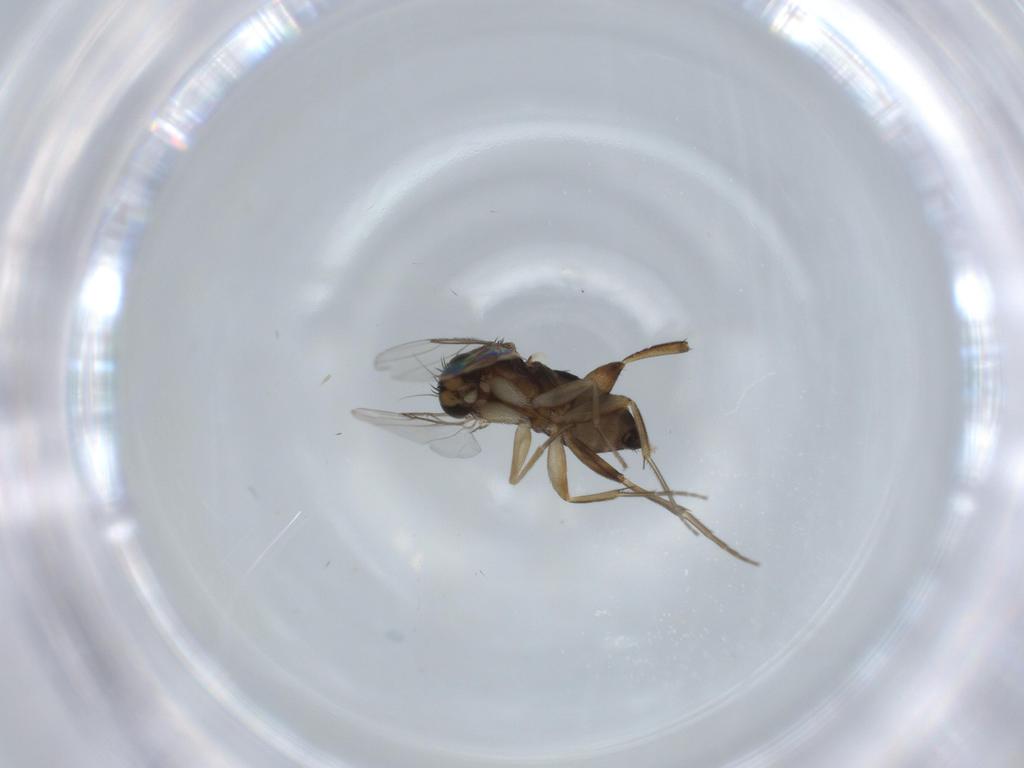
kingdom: Animalia
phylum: Arthropoda
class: Insecta
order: Diptera
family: Phoridae
